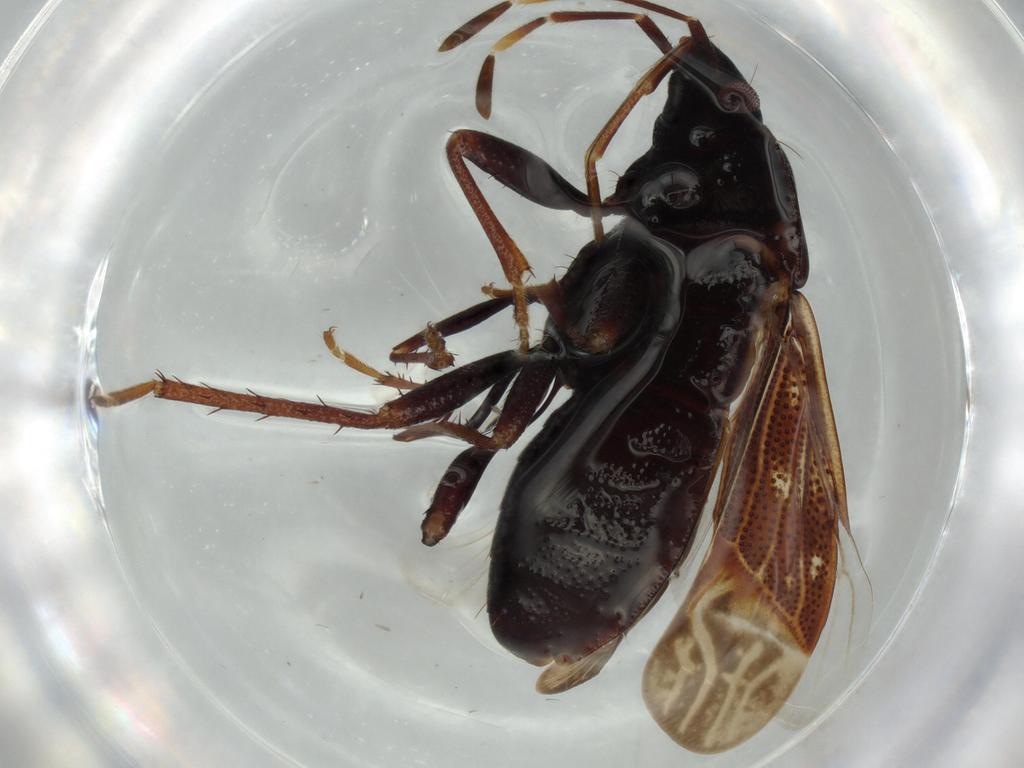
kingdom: Animalia
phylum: Arthropoda
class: Insecta
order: Hemiptera
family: Rhyparochromidae
